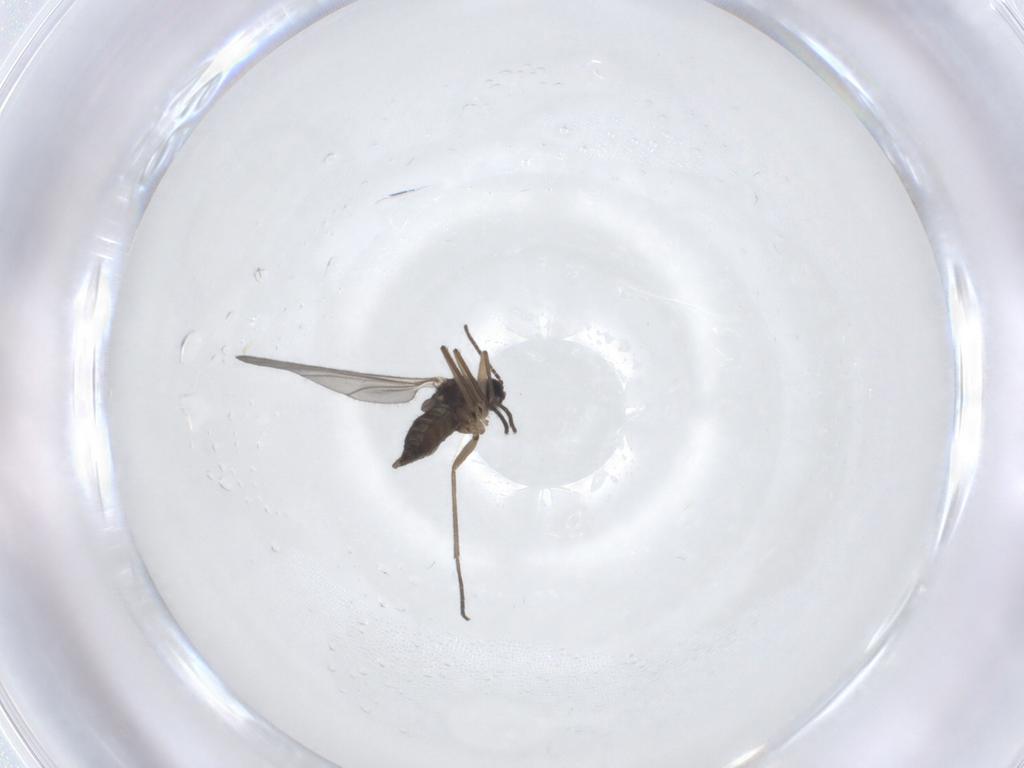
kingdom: Animalia
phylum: Arthropoda
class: Insecta
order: Diptera
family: Sciaridae
